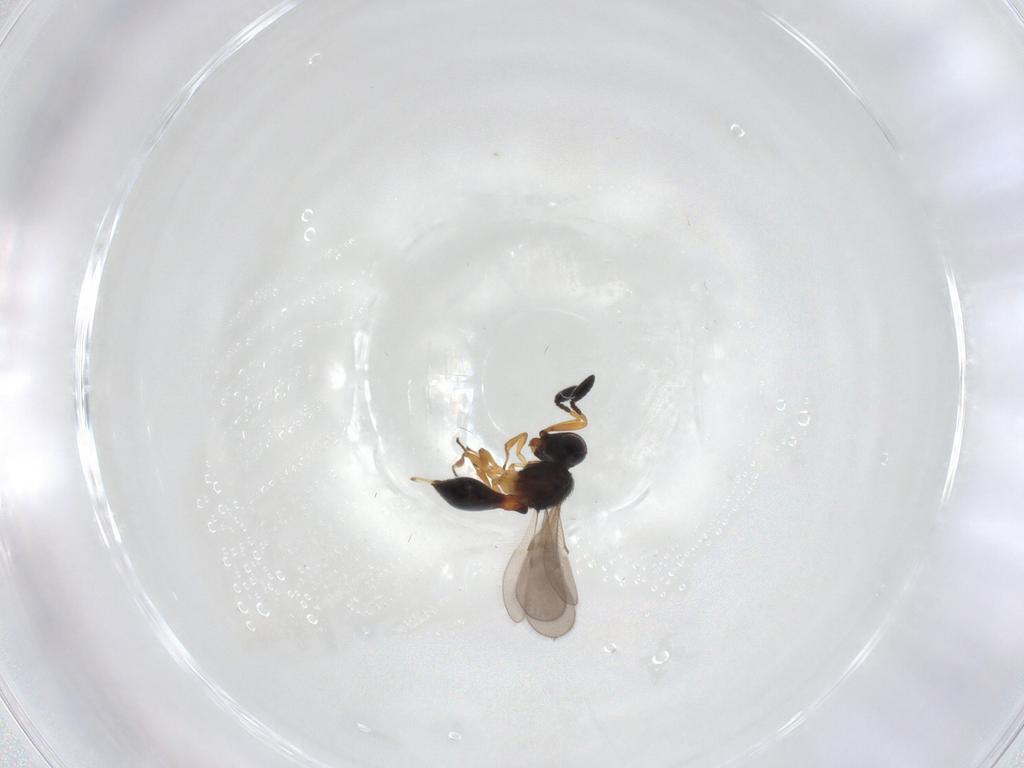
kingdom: Animalia
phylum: Arthropoda
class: Insecta
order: Hymenoptera
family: Scelionidae
